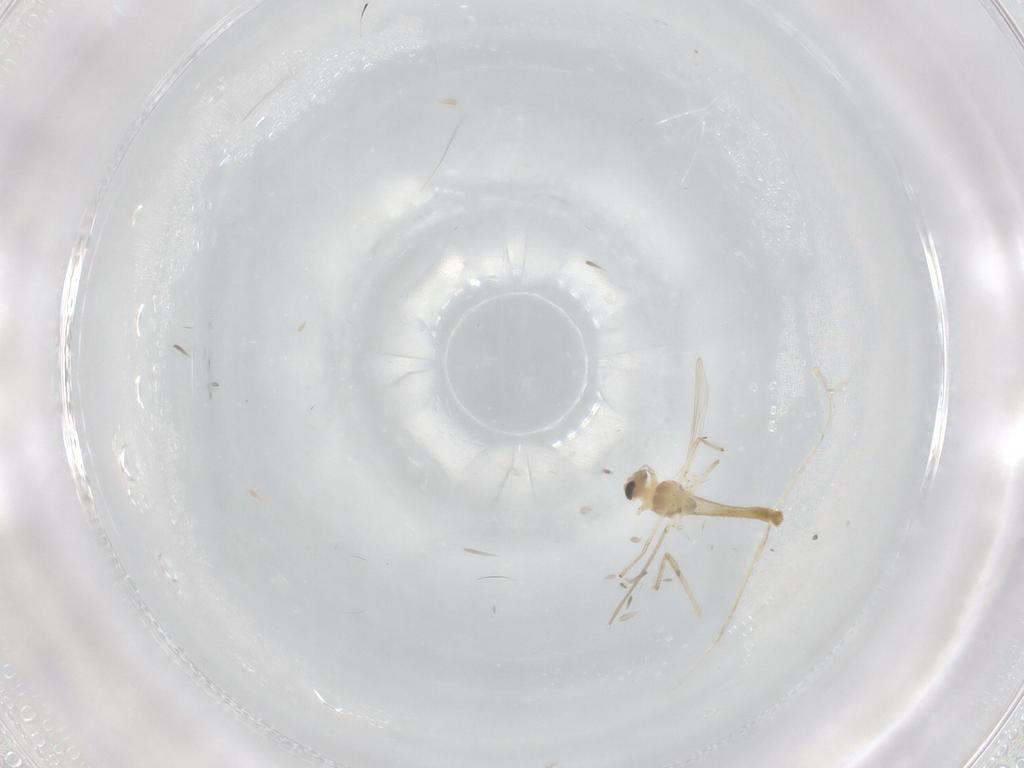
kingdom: Animalia
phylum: Arthropoda
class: Insecta
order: Diptera
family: Chironomidae
